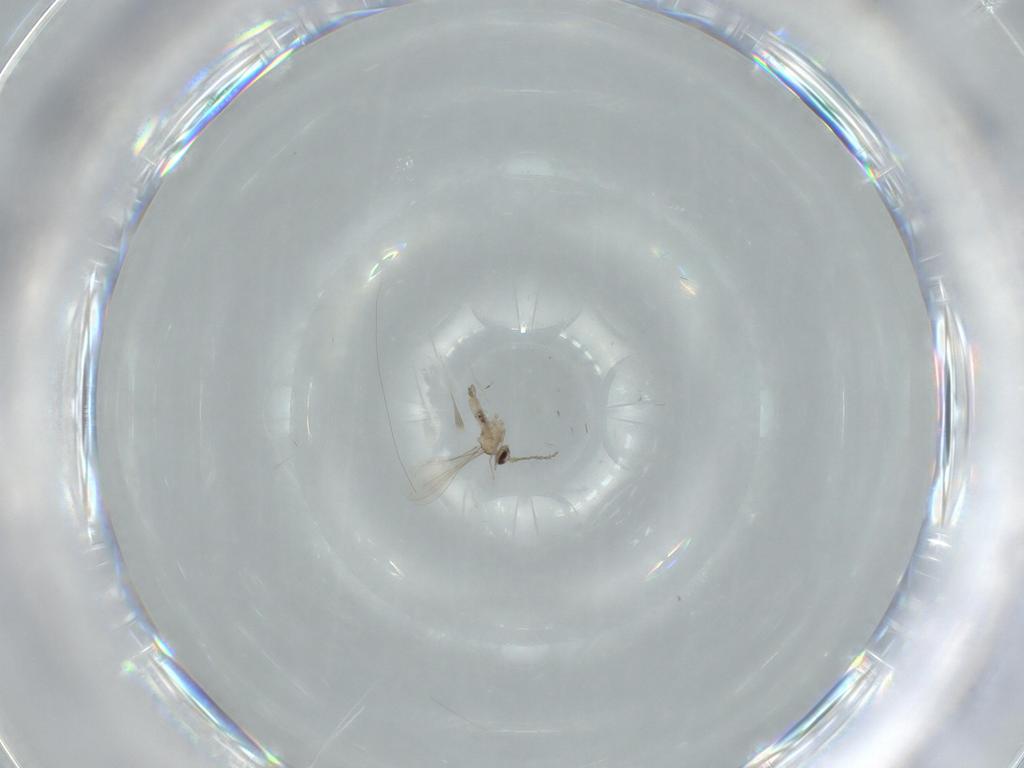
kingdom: Animalia
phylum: Arthropoda
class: Insecta
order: Diptera
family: Cecidomyiidae
